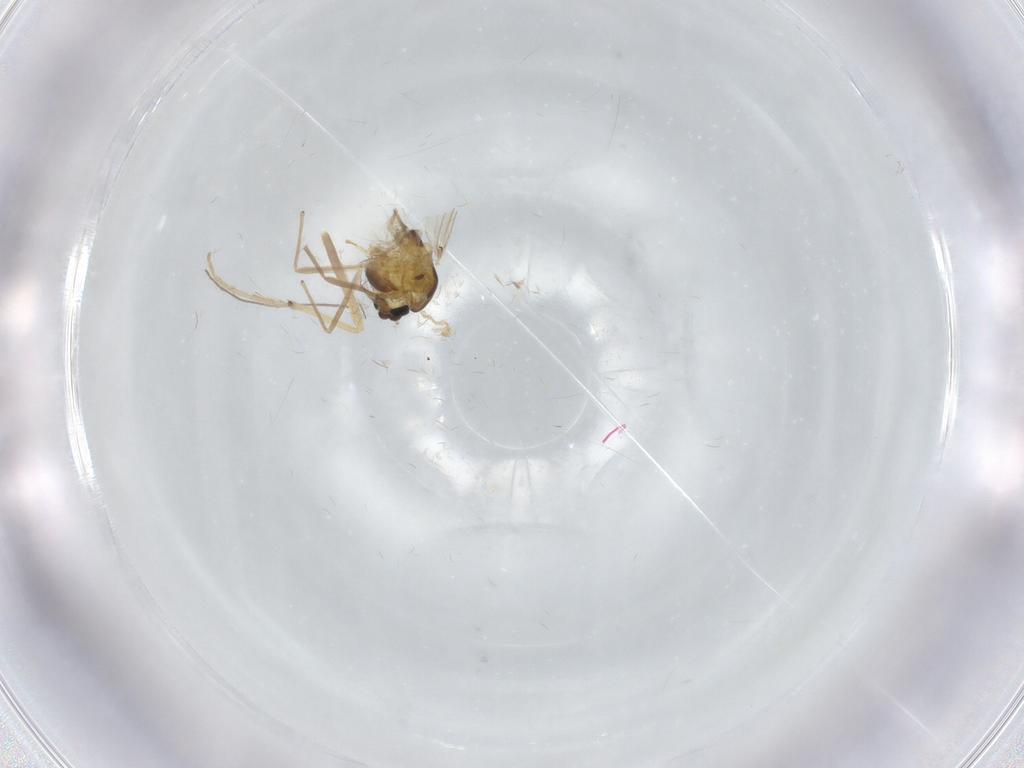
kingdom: Animalia
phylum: Arthropoda
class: Insecta
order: Diptera
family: Chironomidae
